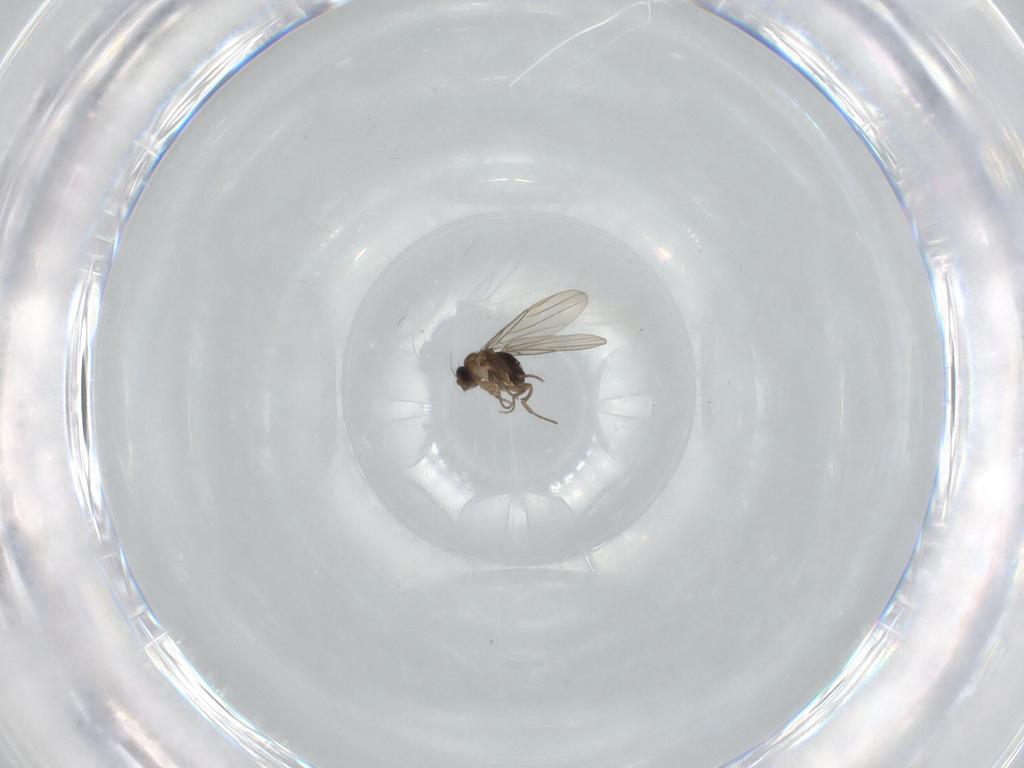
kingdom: Animalia
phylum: Arthropoda
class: Insecta
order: Diptera
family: Phoridae
